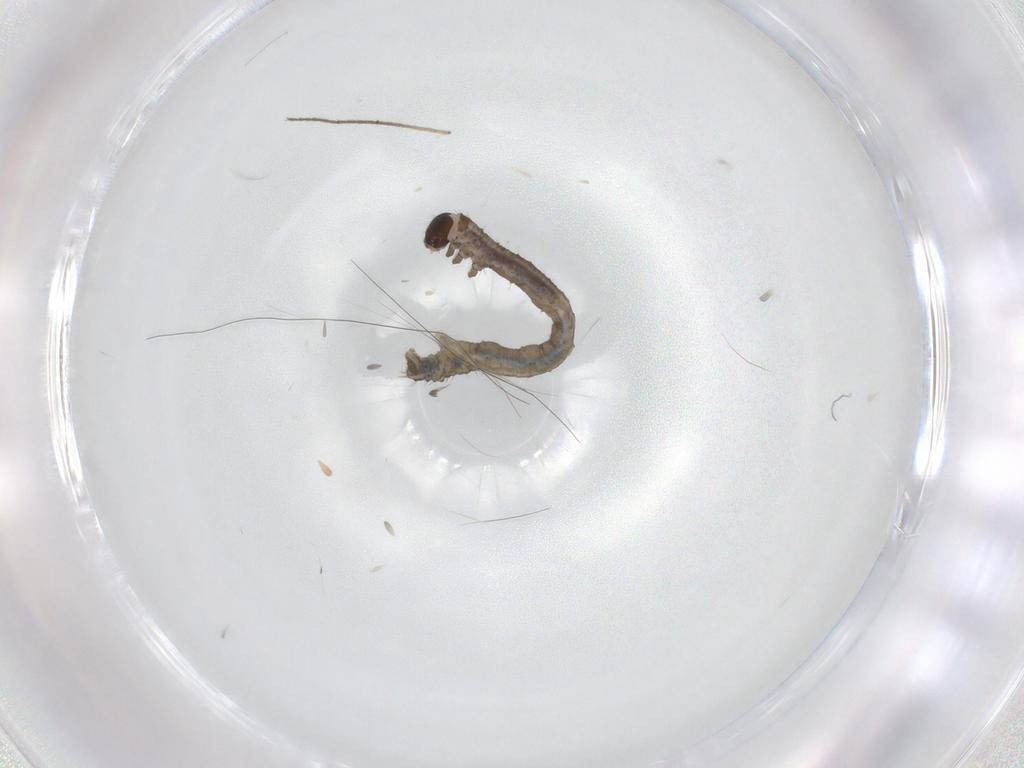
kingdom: Animalia
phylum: Arthropoda
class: Insecta
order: Lepidoptera
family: Geometridae
